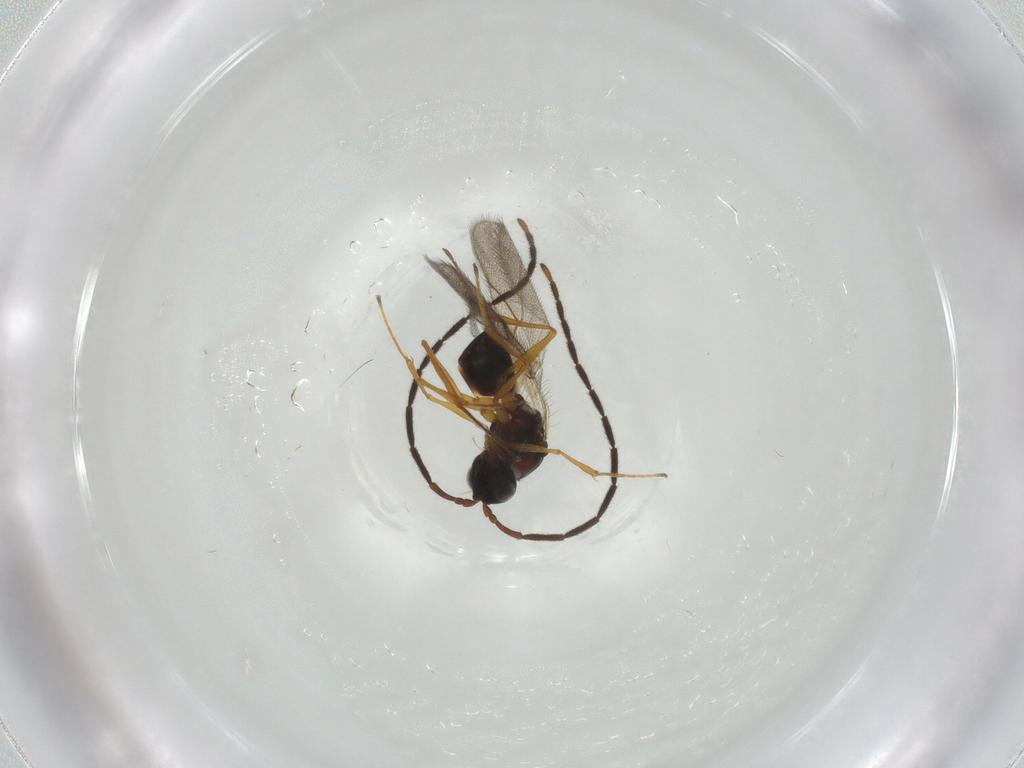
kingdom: Animalia
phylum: Arthropoda
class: Insecta
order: Hymenoptera
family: Figitidae
